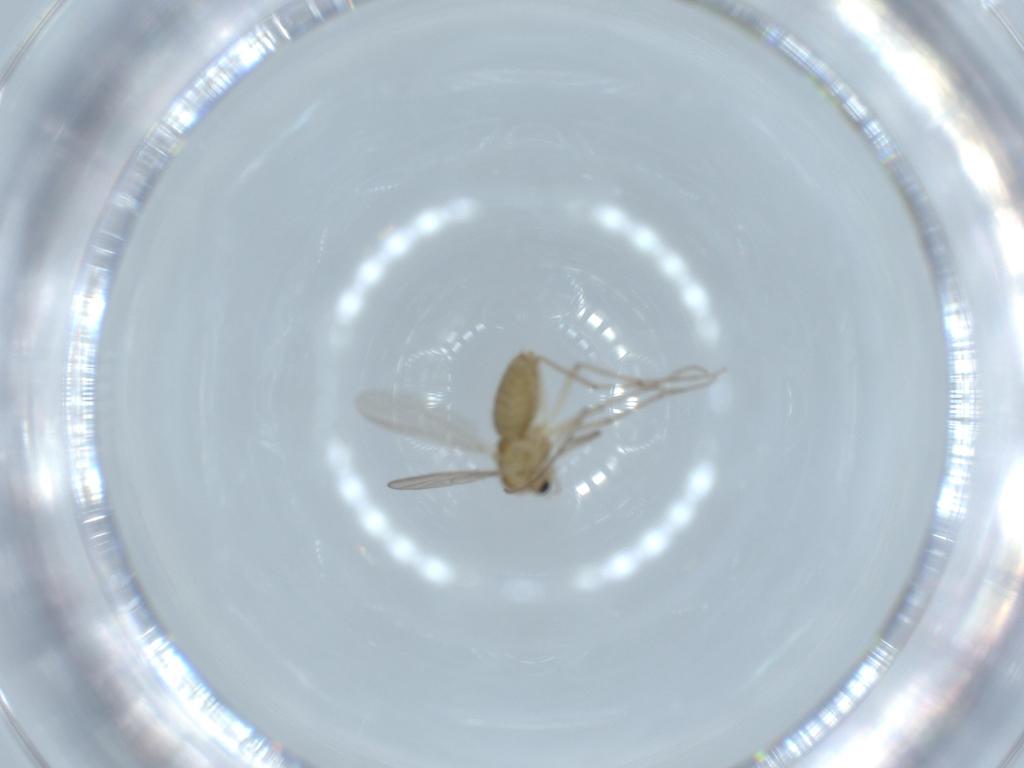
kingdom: Animalia
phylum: Arthropoda
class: Insecta
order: Diptera
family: Chironomidae
